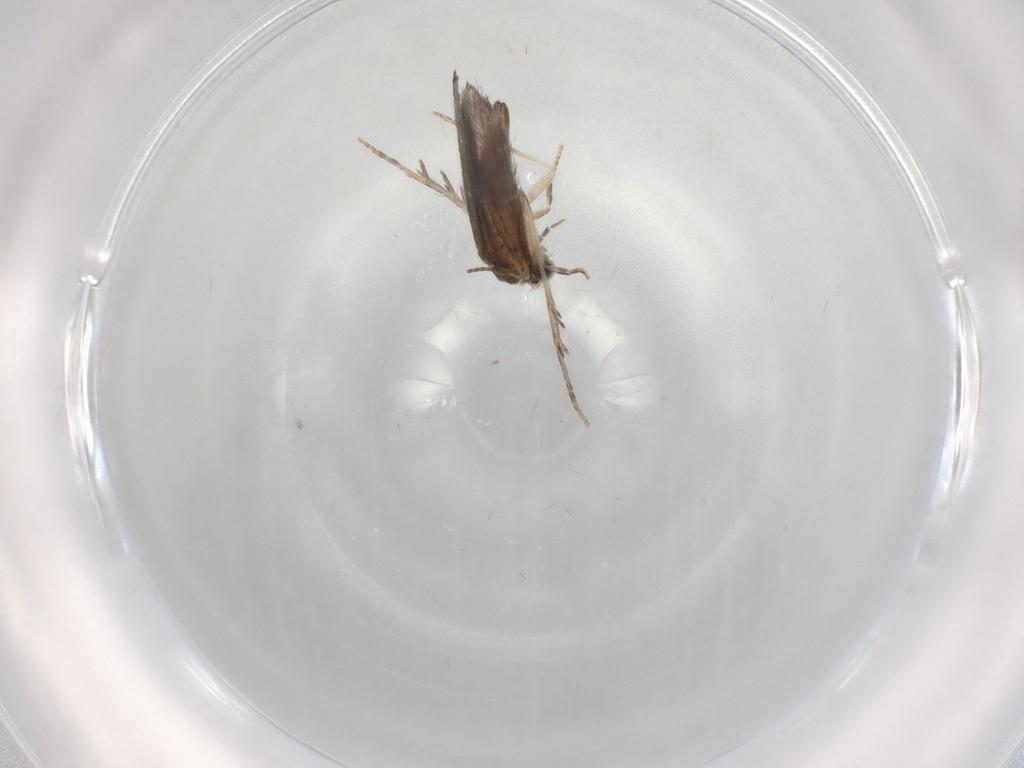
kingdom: Animalia
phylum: Arthropoda
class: Insecta
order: Trichoptera
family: Hydroptilidae
